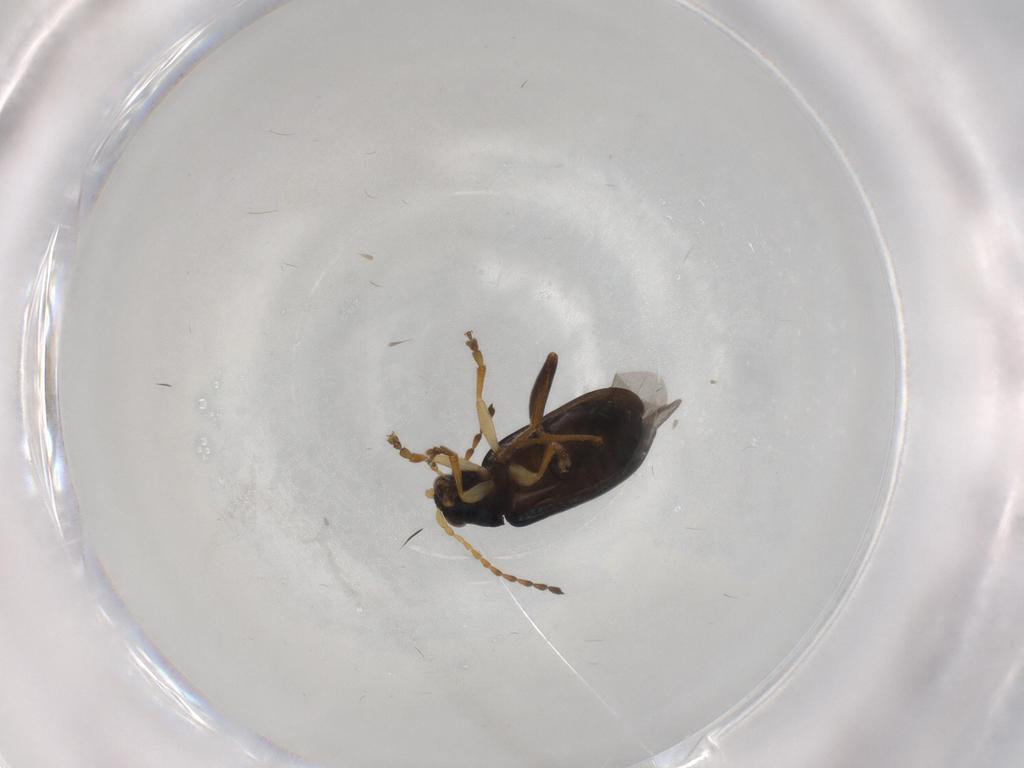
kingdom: Animalia
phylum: Arthropoda
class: Insecta
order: Coleoptera
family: Chrysomelidae
